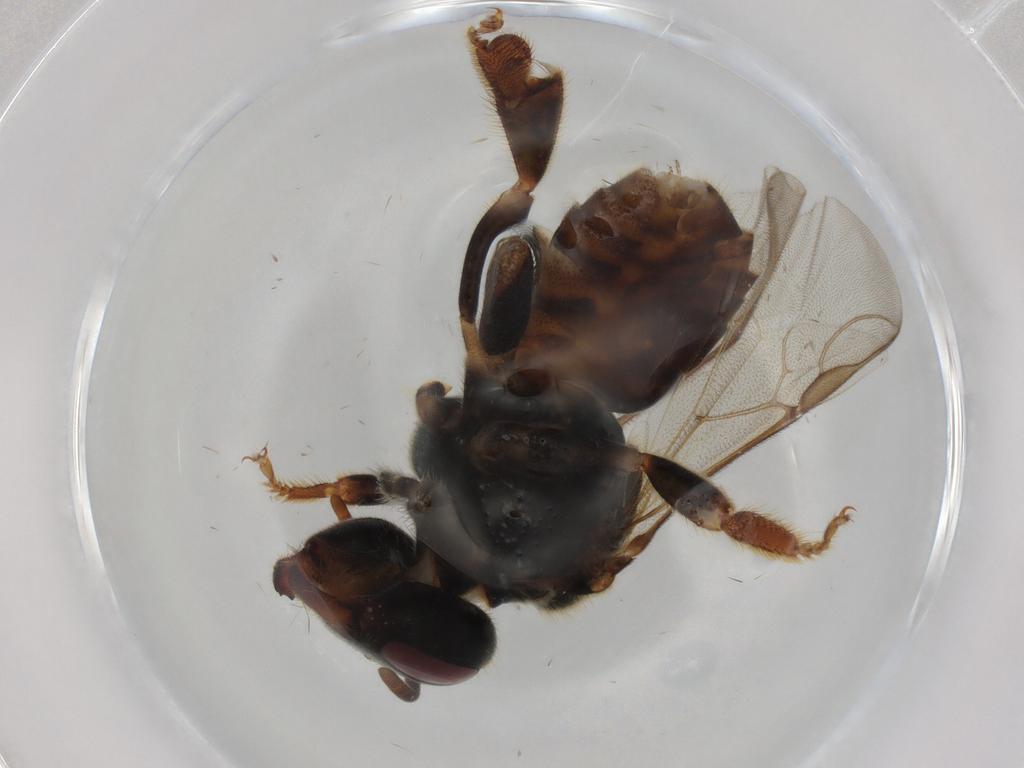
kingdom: Animalia
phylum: Arthropoda
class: Insecta
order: Hymenoptera
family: Apidae
